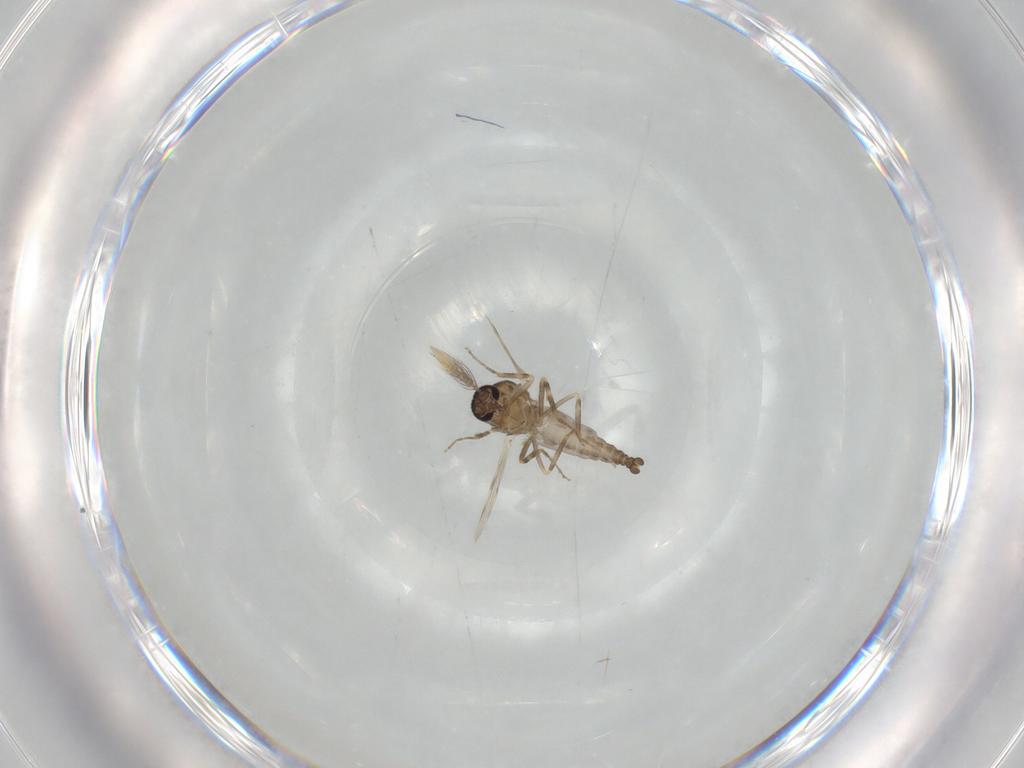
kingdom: Animalia
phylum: Arthropoda
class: Insecta
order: Diptera
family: Ceratopogonidae
